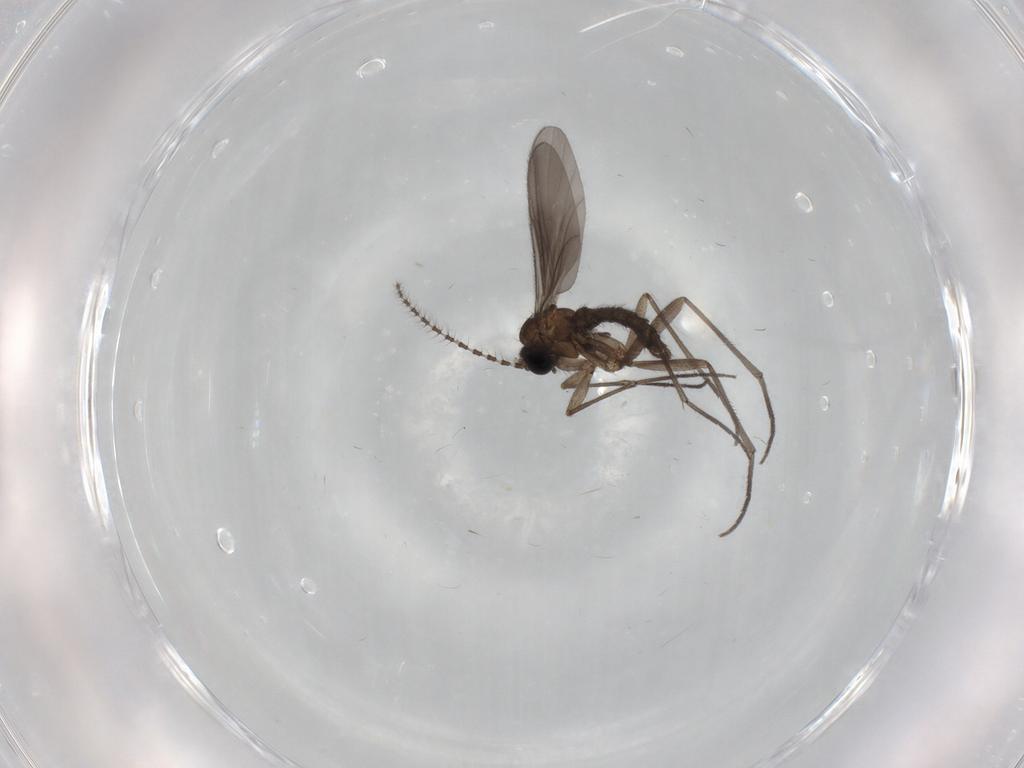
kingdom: Animalia
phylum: Arthropoda
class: Insecta
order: Diptera
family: Sciaridae
